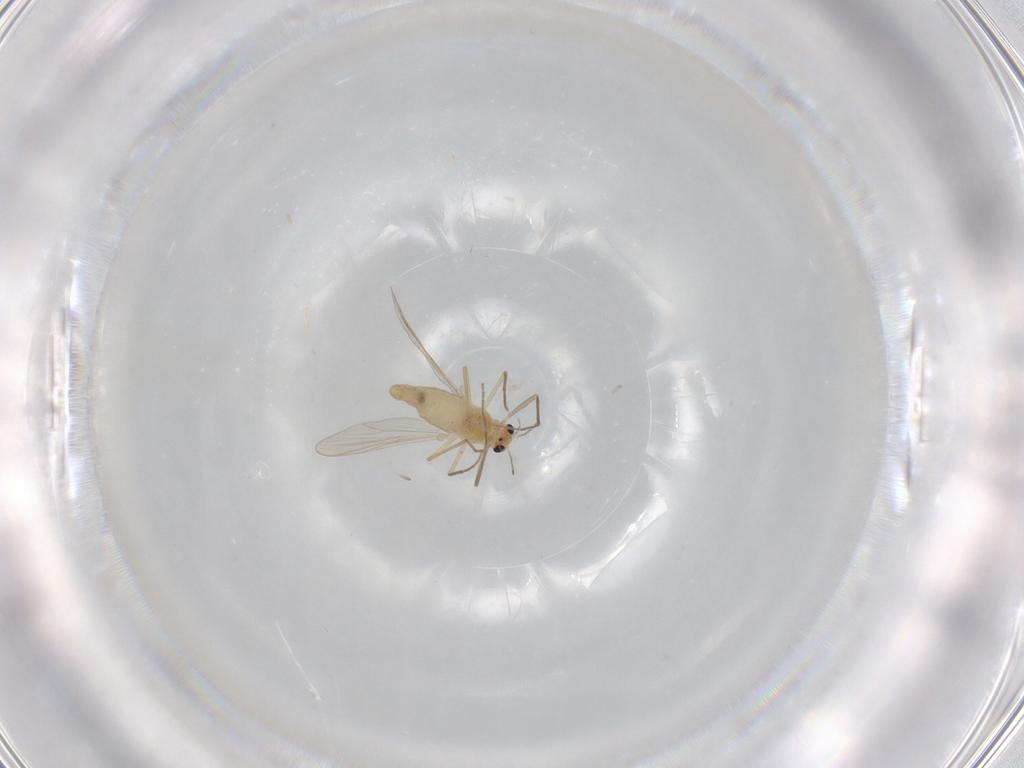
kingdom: Animalia
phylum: Arthropoda
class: Insecta
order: Diptera
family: Chironomidae
